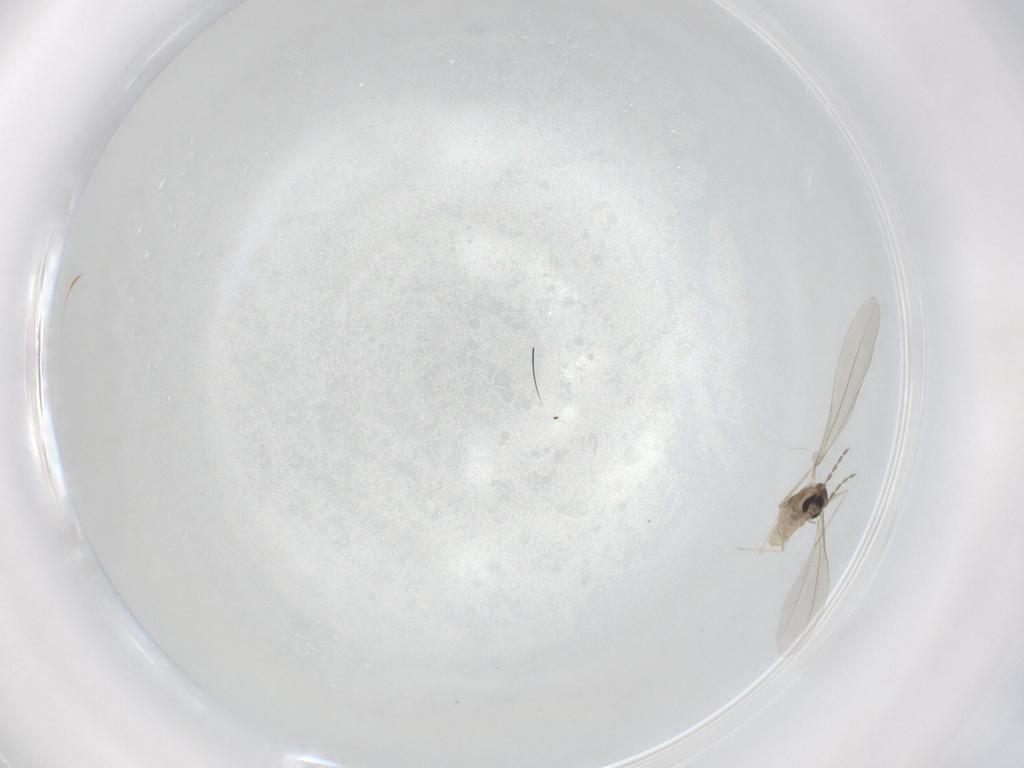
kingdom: Animalia
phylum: Arthropoda
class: Insecta
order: Diptera
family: Cecidomyiidae
